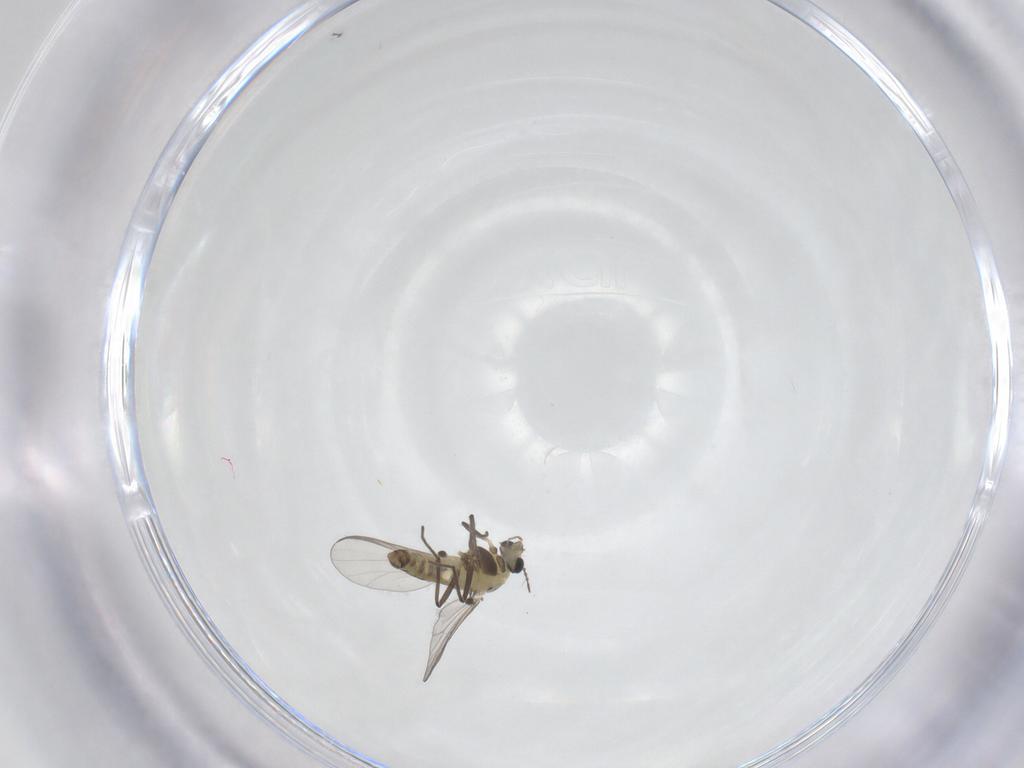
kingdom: Animalia
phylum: Arthropoda
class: Insecta
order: Diptera
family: Chironomidae
